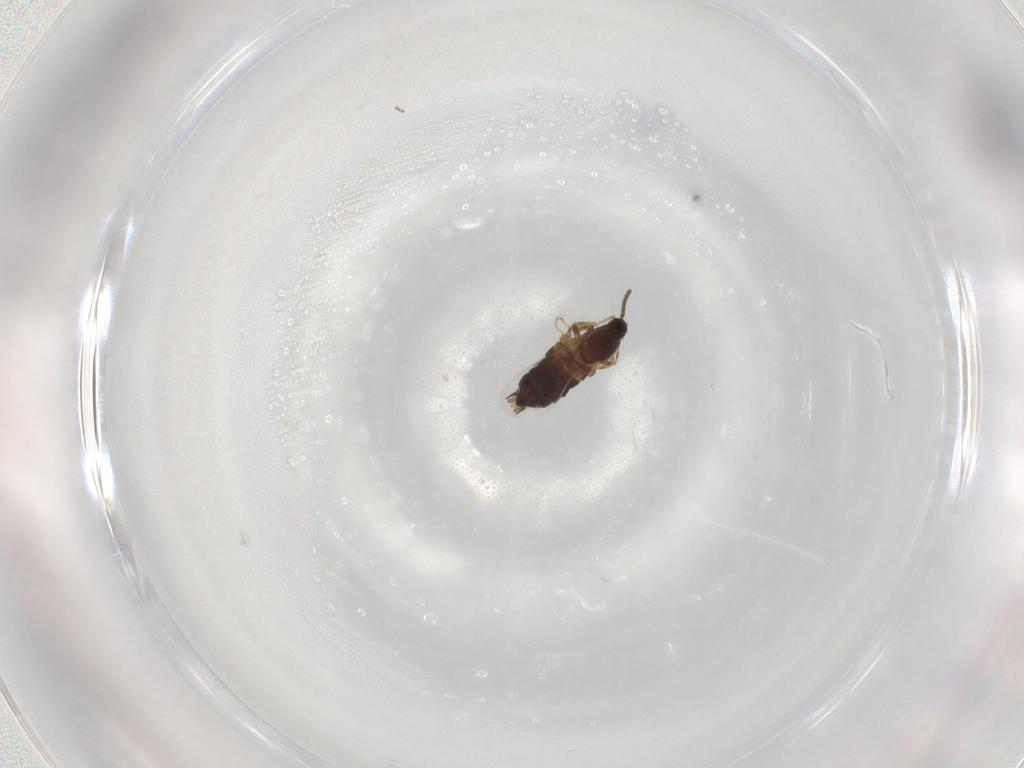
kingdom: Animalia
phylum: Arthropoda
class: Insecta
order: Diptera
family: Scatopsidae
